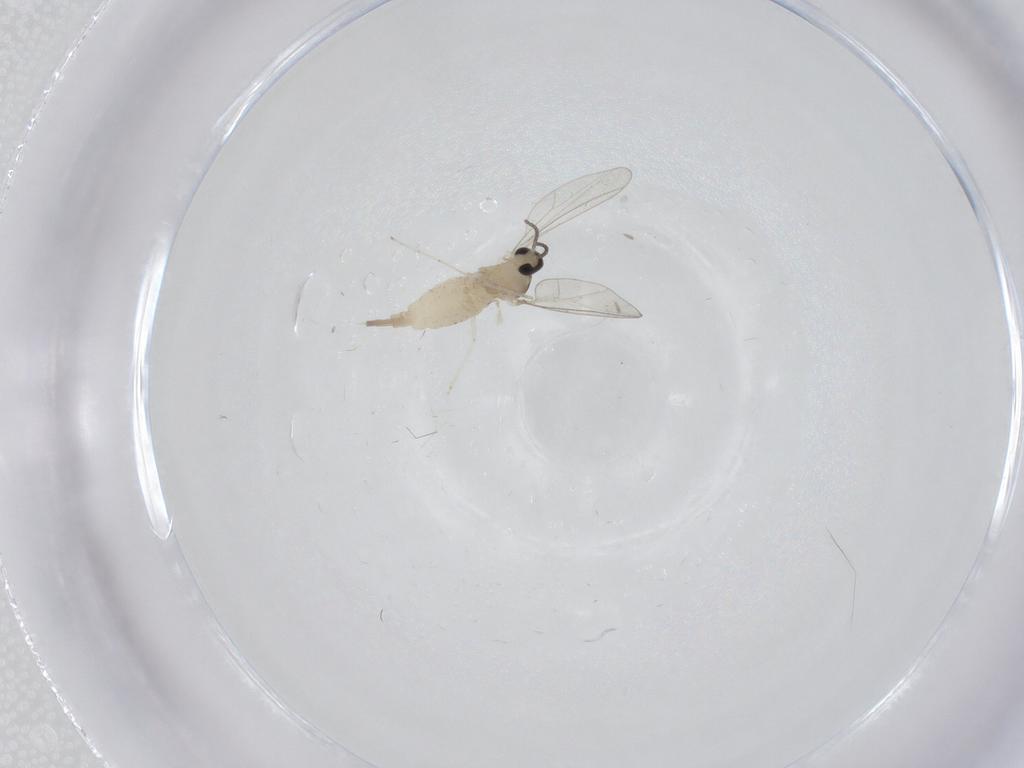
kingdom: Animalia
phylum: Arthropoda
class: Insecta
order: Diptera
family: Cecidomyiidae
